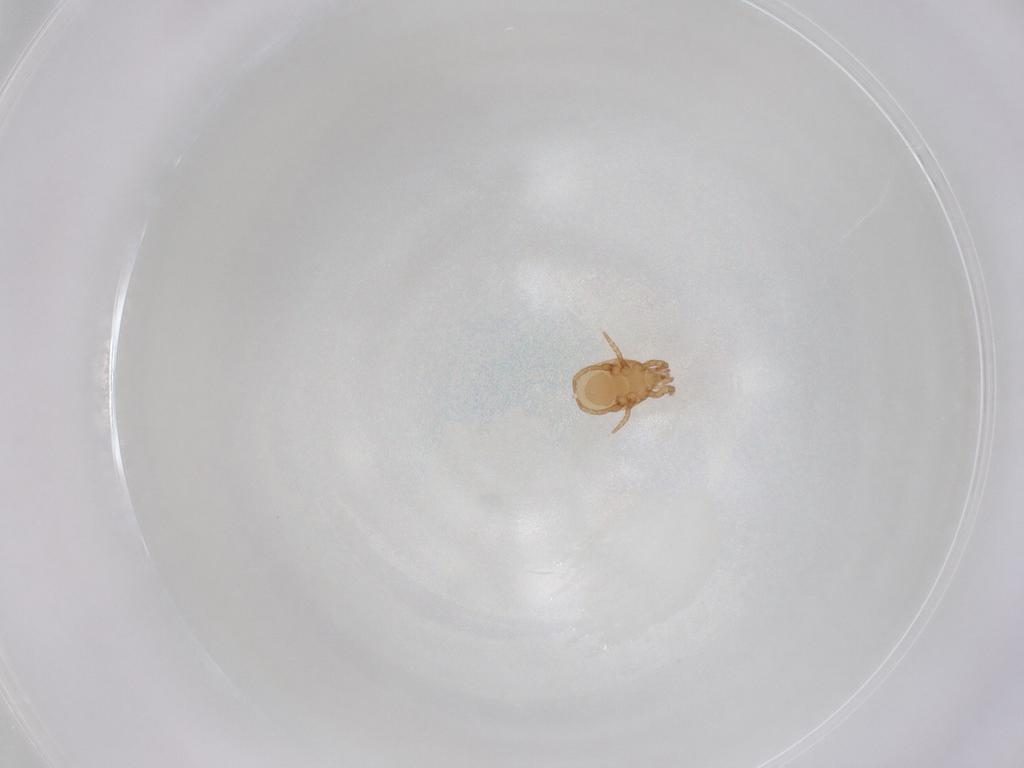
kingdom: Animalia
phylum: Arthropoda
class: Arachnida
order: Mesostigmata
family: Macrochelidae
